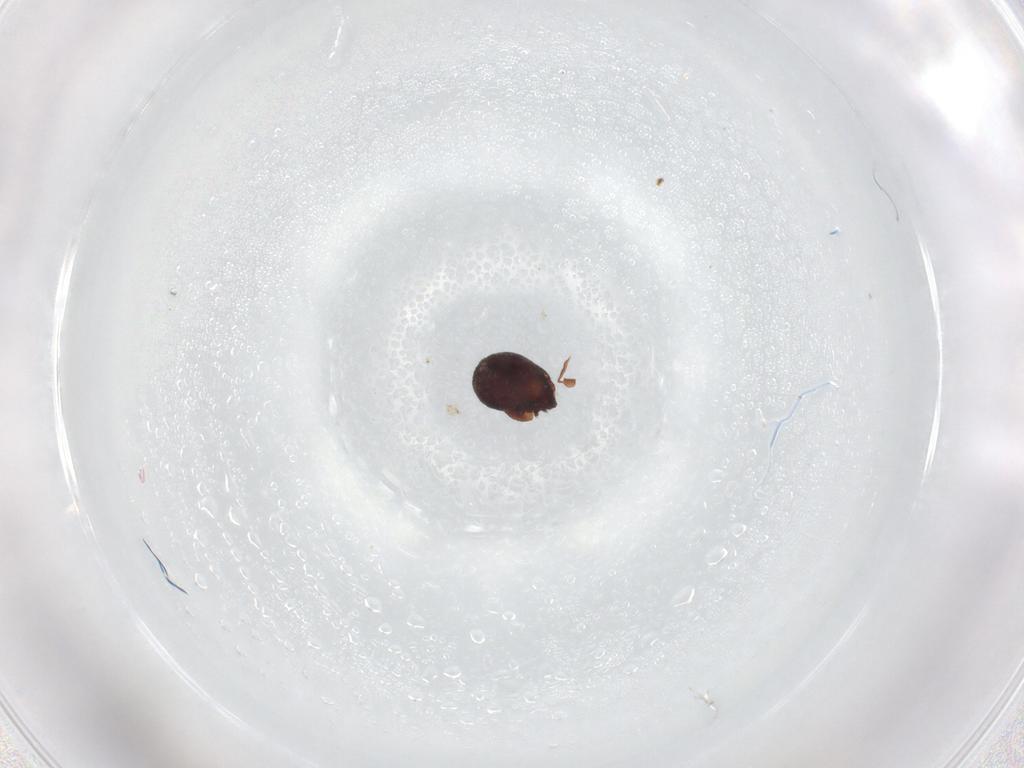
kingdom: Animalia
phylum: Arthropoda
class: Arachnida
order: Sarcoptiformes
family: Humerobatidae
